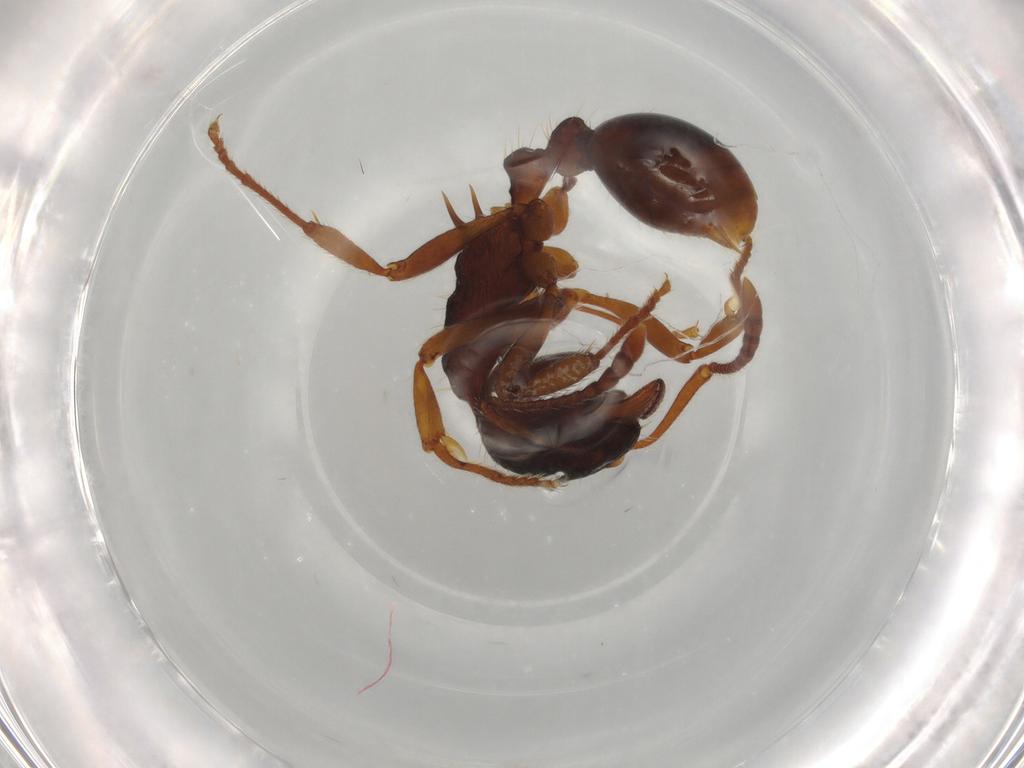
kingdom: Animalia
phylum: Arthropoda
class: Insecta
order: Hymenoptera
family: Formicidae
